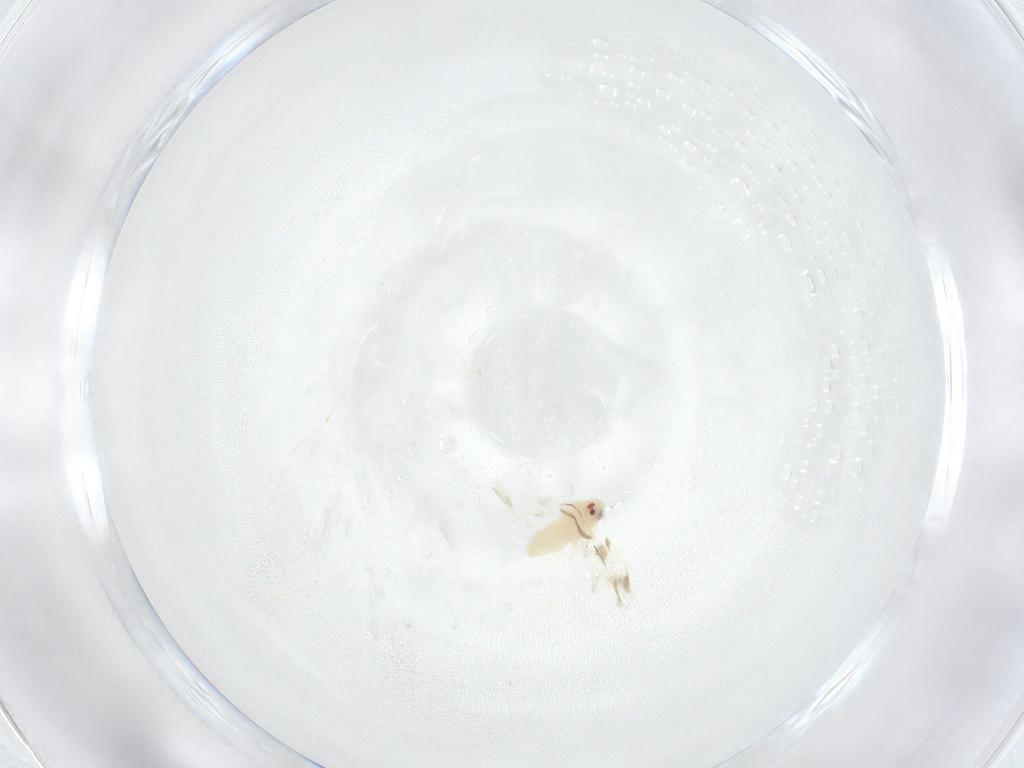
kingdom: Animalia
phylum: Arthropoda
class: Insecta
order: Hemiptera
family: Aleyrodidae
